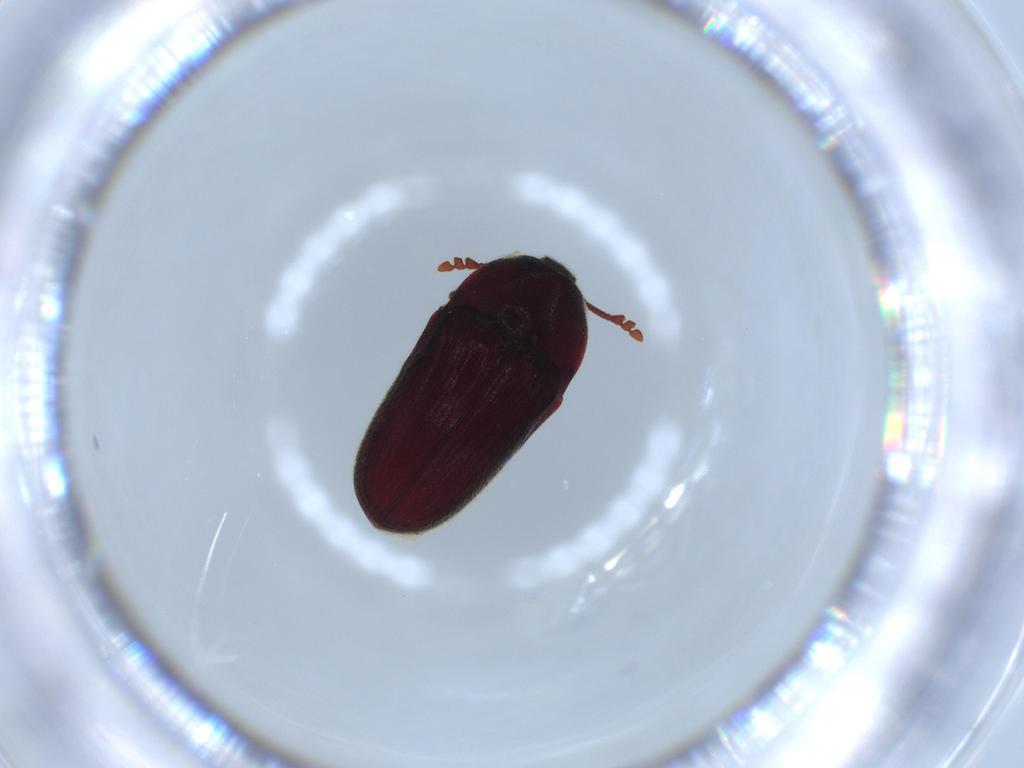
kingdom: Animalia
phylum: Arthropoda
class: Insecta
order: Coleoptera
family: Throscidae
